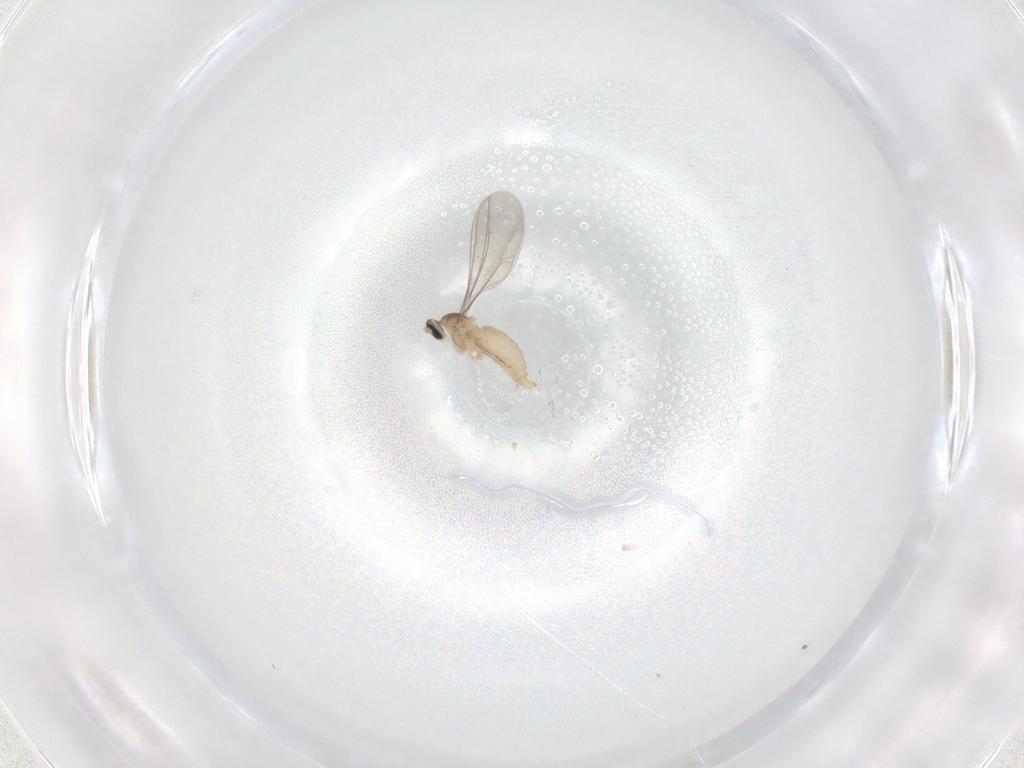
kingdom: Animalia
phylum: Arthropoda
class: Insecta
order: Diptera
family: Cecidomyiidae
